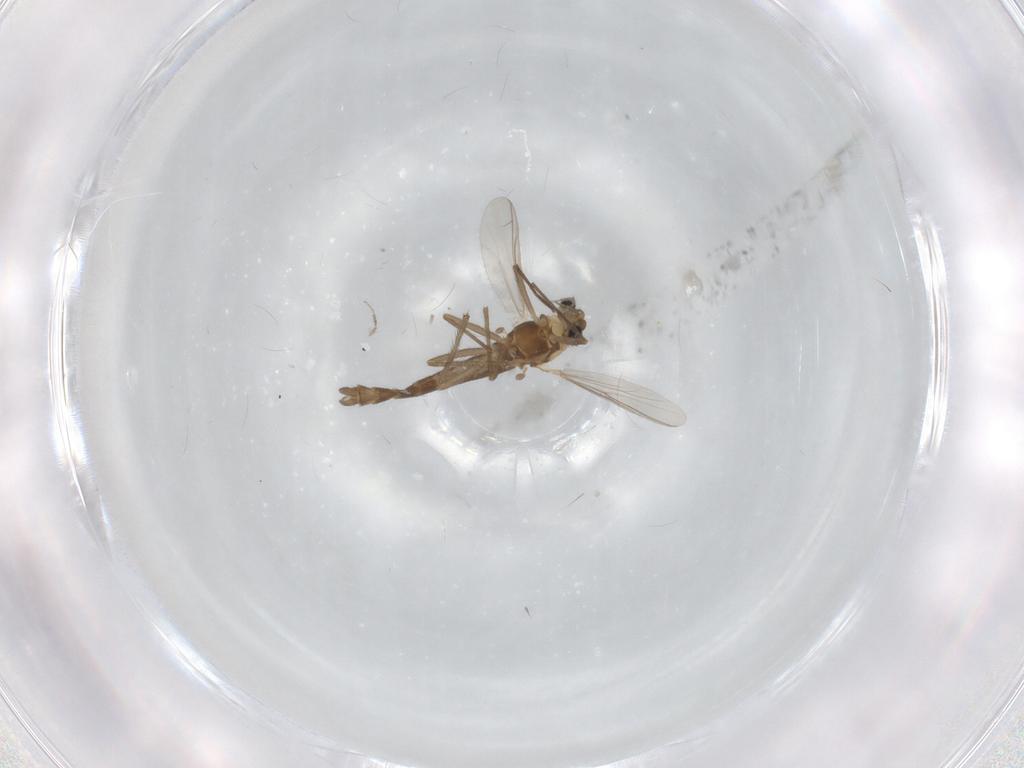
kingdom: Animalia
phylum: Arthropoda
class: Insecta
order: Diptera
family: Chironomidae
